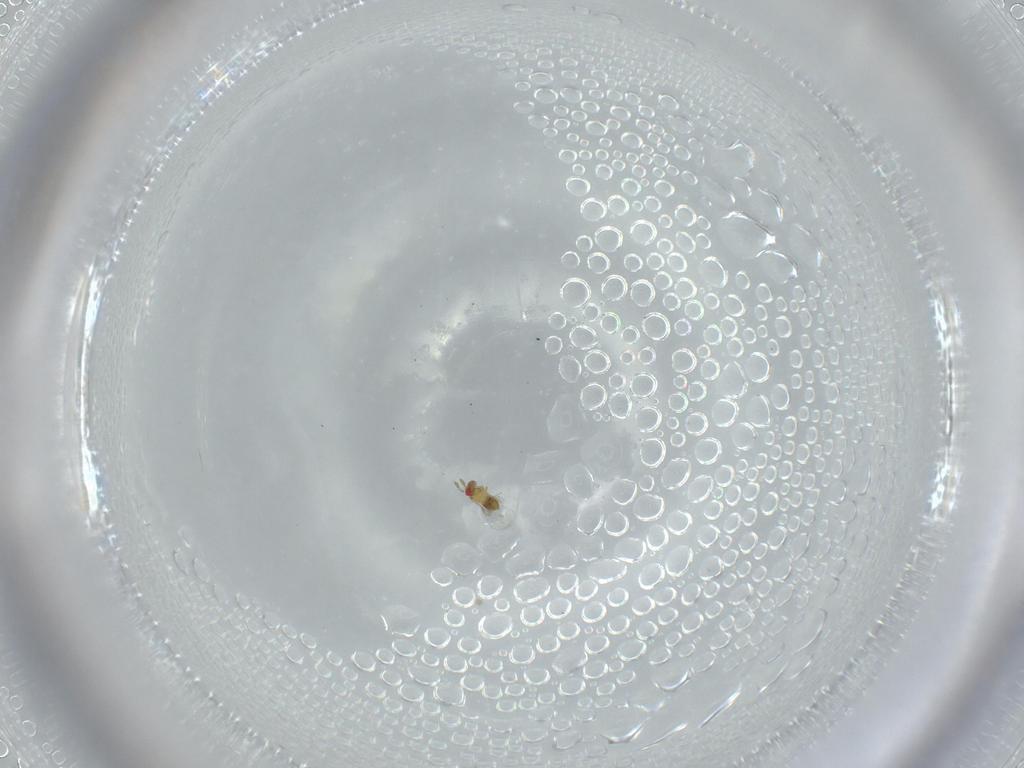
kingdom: Animalia
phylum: Arthropoda
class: Insecta
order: Hymenoptera
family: Trichogrammatidae
